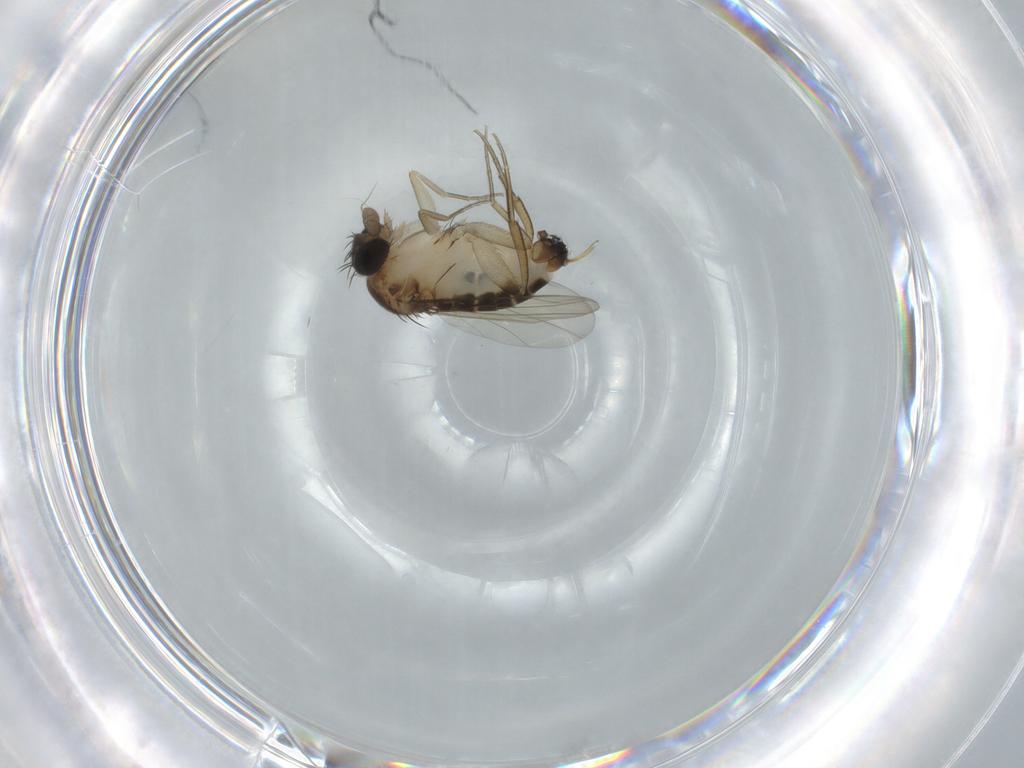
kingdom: Animalia
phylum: Arthropoda
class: Insecta
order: Diptera
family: Phoridae
